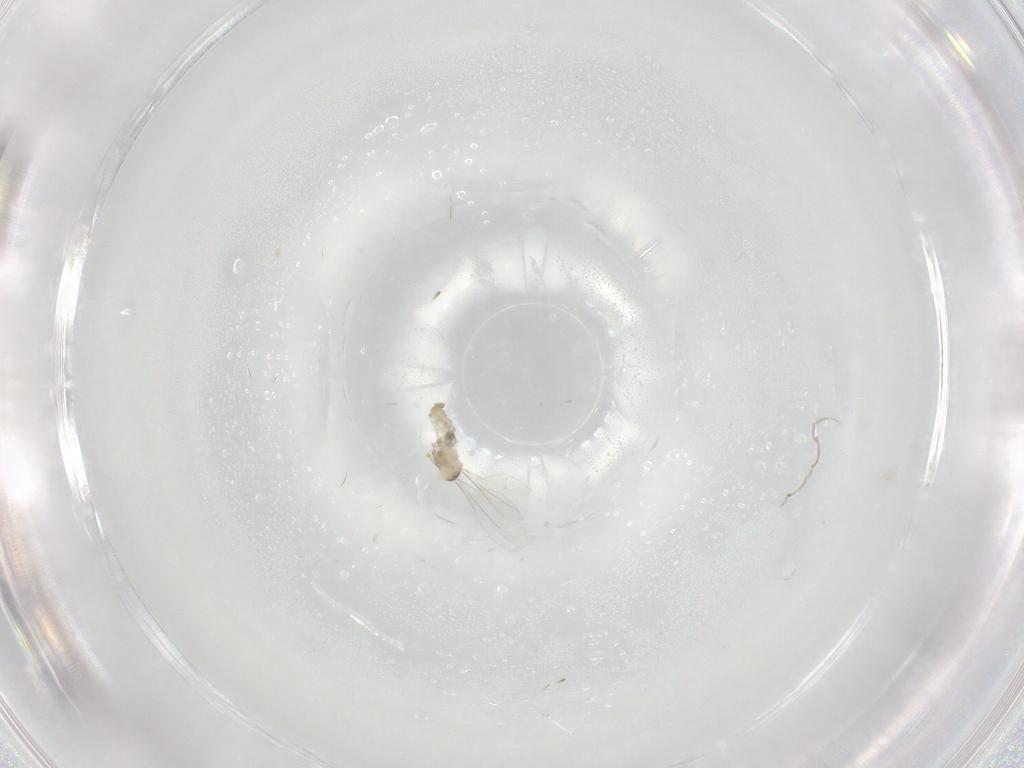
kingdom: Animalia
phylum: Arthropoda
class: Insecta
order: Diptera
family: Cecidomyiidae
